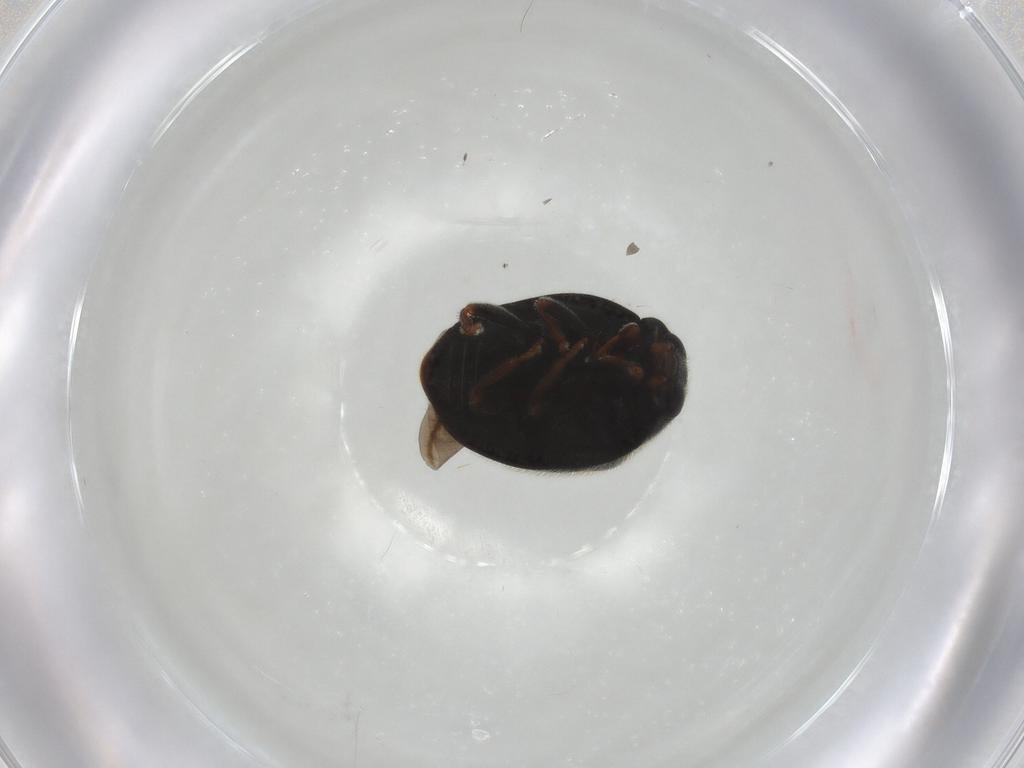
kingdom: Animalia
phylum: Arthropoda
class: Insecta
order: Coleoptera
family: Coccinellidae
